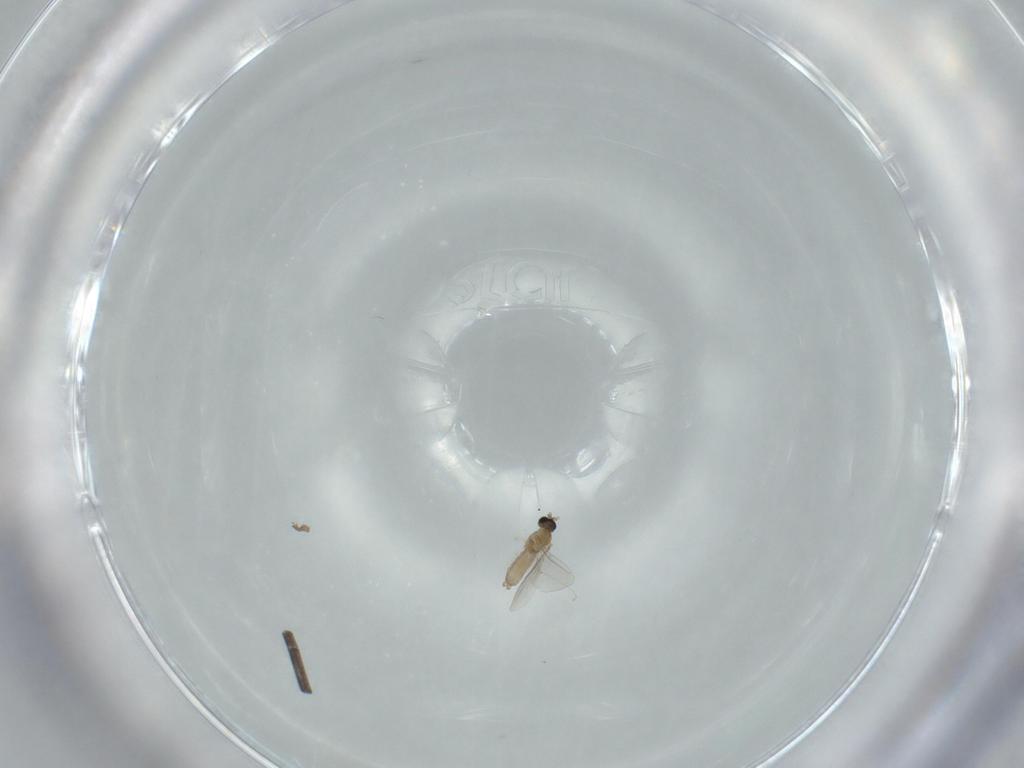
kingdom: Animalia
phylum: Arthropoda
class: Insecta
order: Diptera
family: Cecidomyiidae
